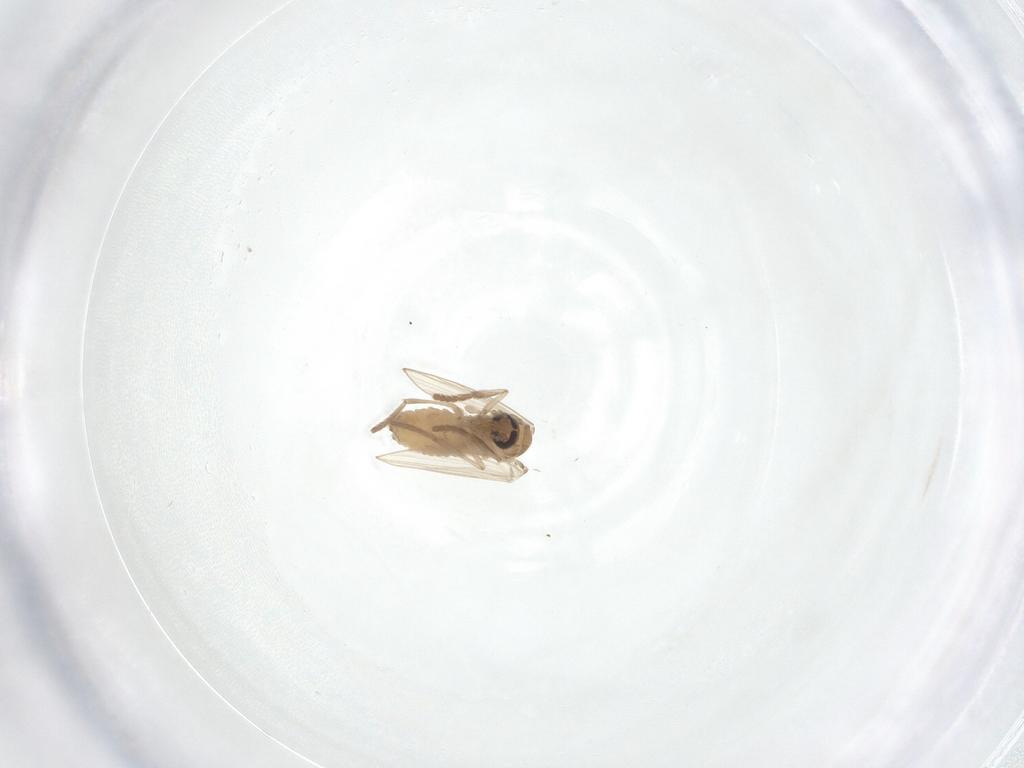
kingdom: Animalia
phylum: Arthropoda
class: Insecta
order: Diptera
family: Psychodidae
